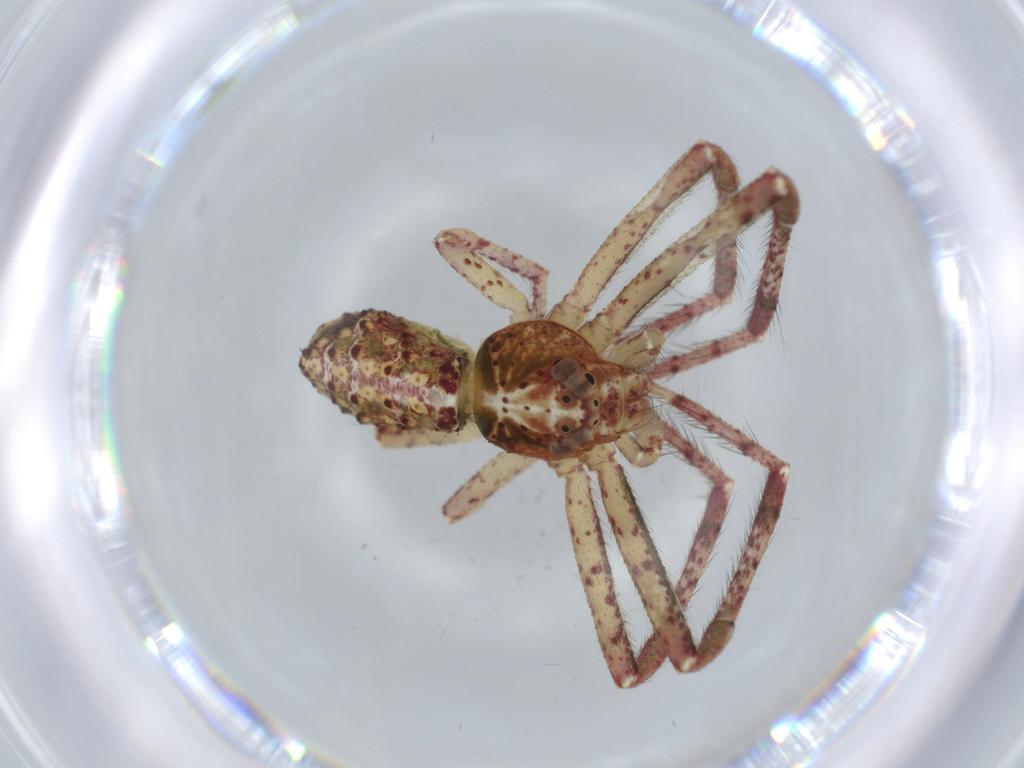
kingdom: Animalia
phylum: Arthropoda
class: Arachnida
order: Araneae
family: Thomisidae
